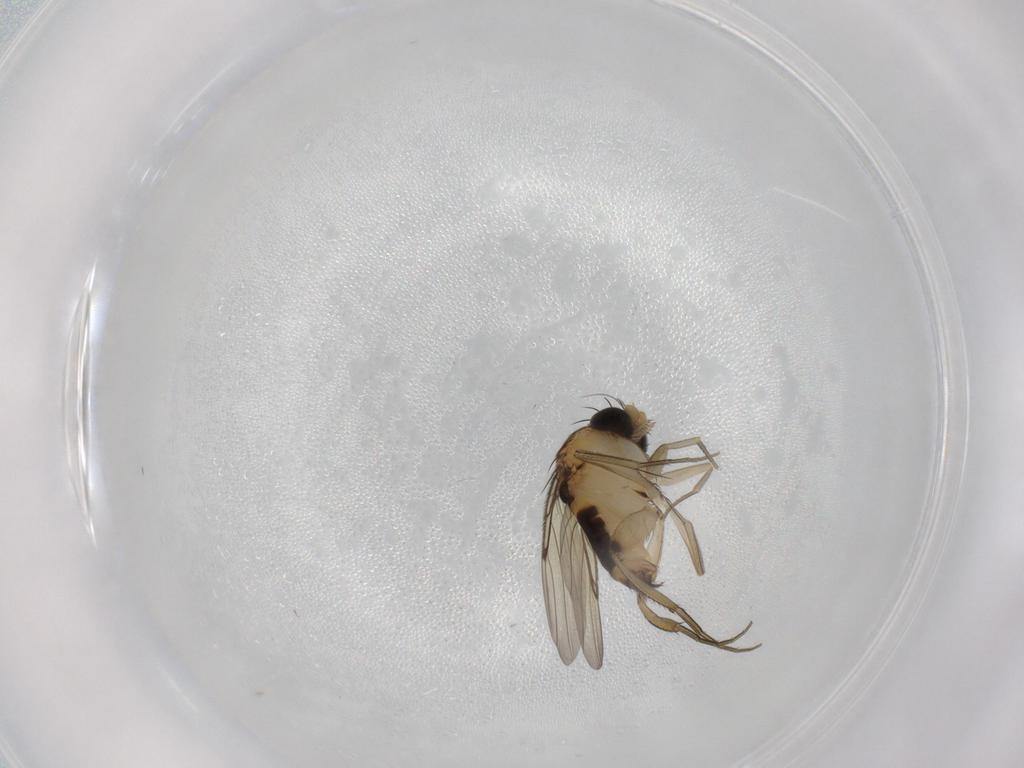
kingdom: Animalia
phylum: Arthropoda
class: Insecta
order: Diptera
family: Phoridae
